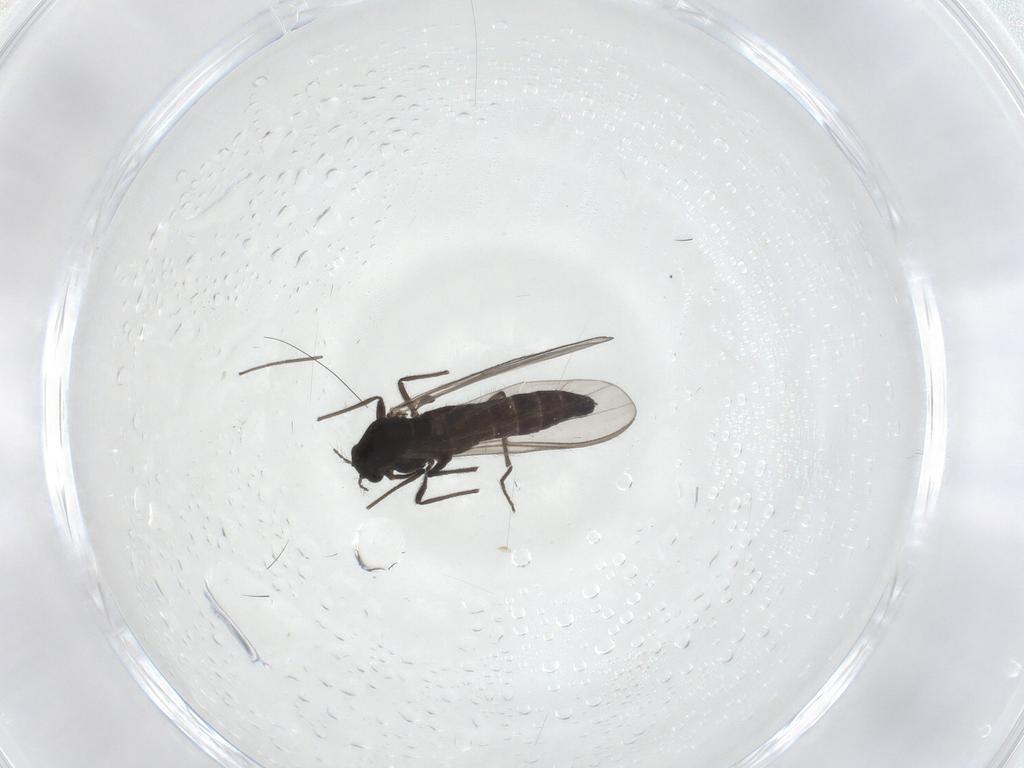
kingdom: Animalia
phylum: Arthropoda
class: Insecta
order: Diptera
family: Chironomidae
